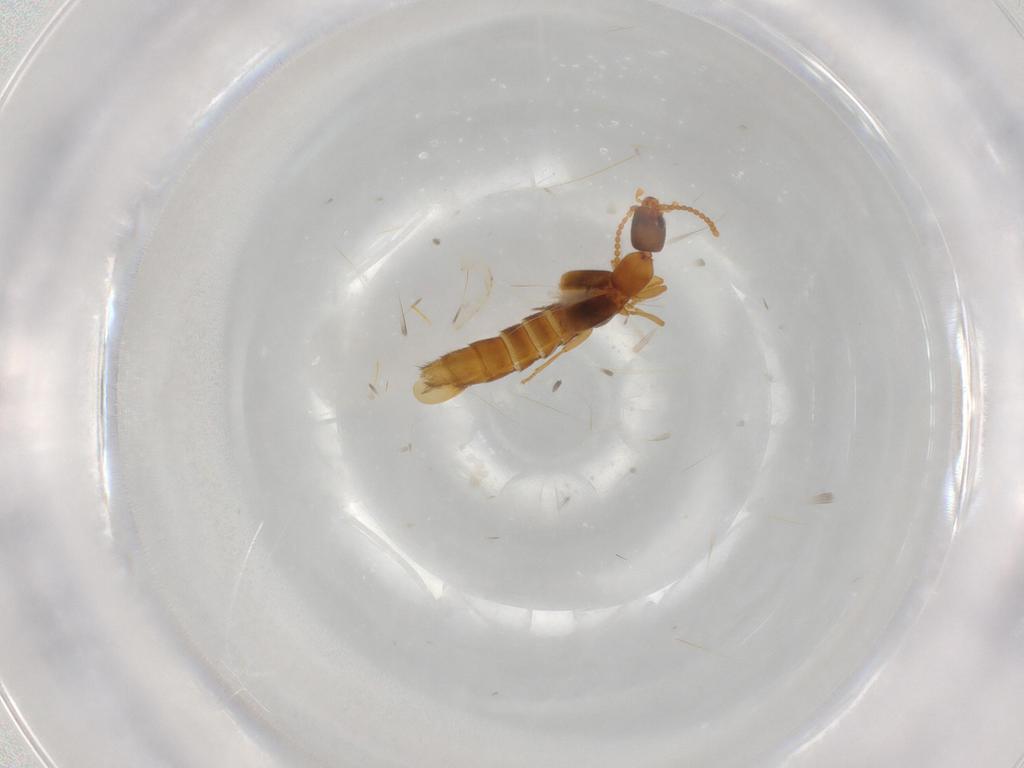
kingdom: Animalia
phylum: Arthropoda
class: Insecta
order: Coleoptera
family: Staphylinidae
